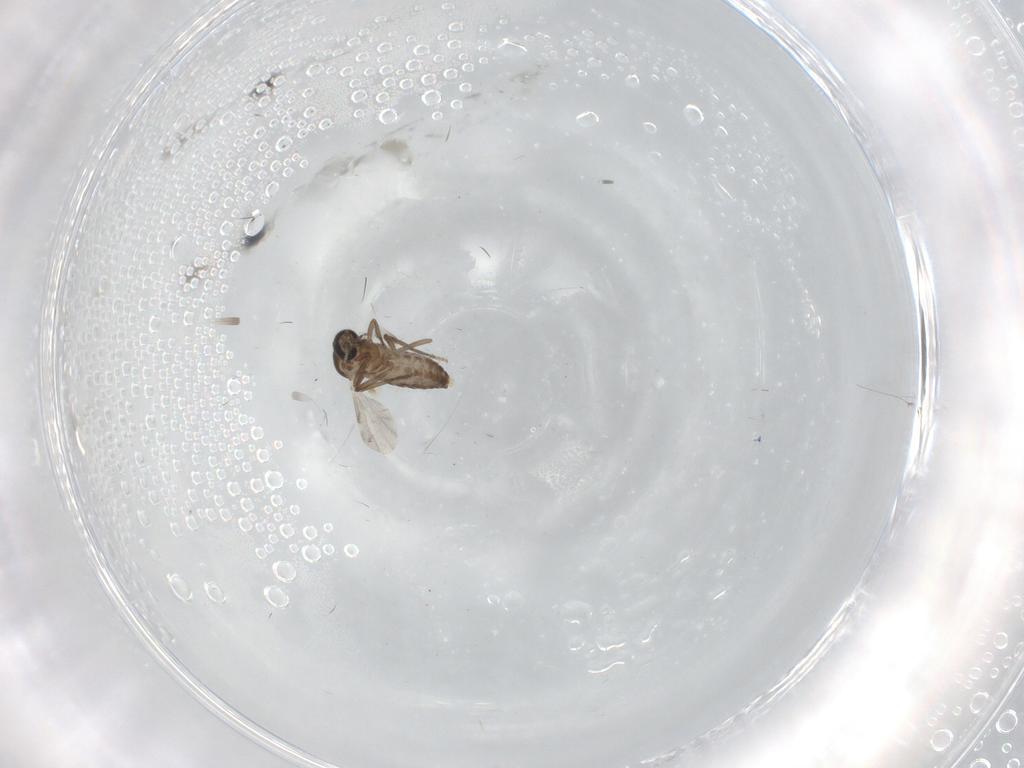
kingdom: Animalia
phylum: Arthropoda
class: Insecta
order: Diptera
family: Ceratopogonidae
